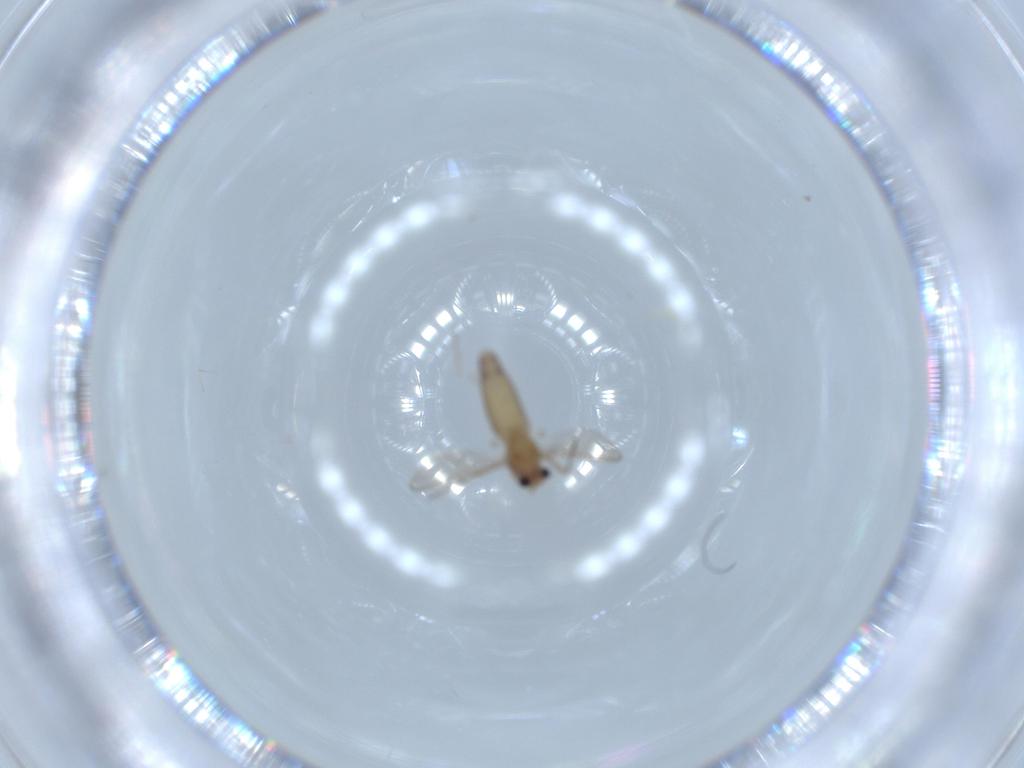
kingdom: Animalia
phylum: Arthropoda
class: Insecta
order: Diptera
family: Chironomidae
